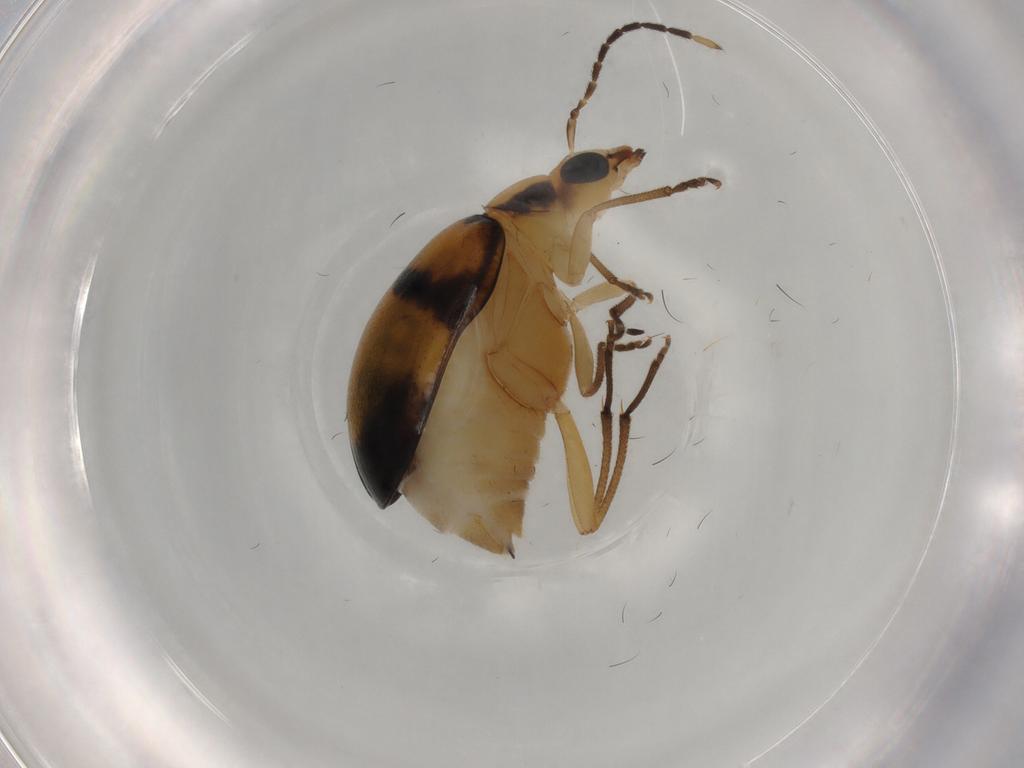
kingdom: Animalia
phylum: Arthropoda
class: Insecta
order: Coleoptera
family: Chrysomelidae
